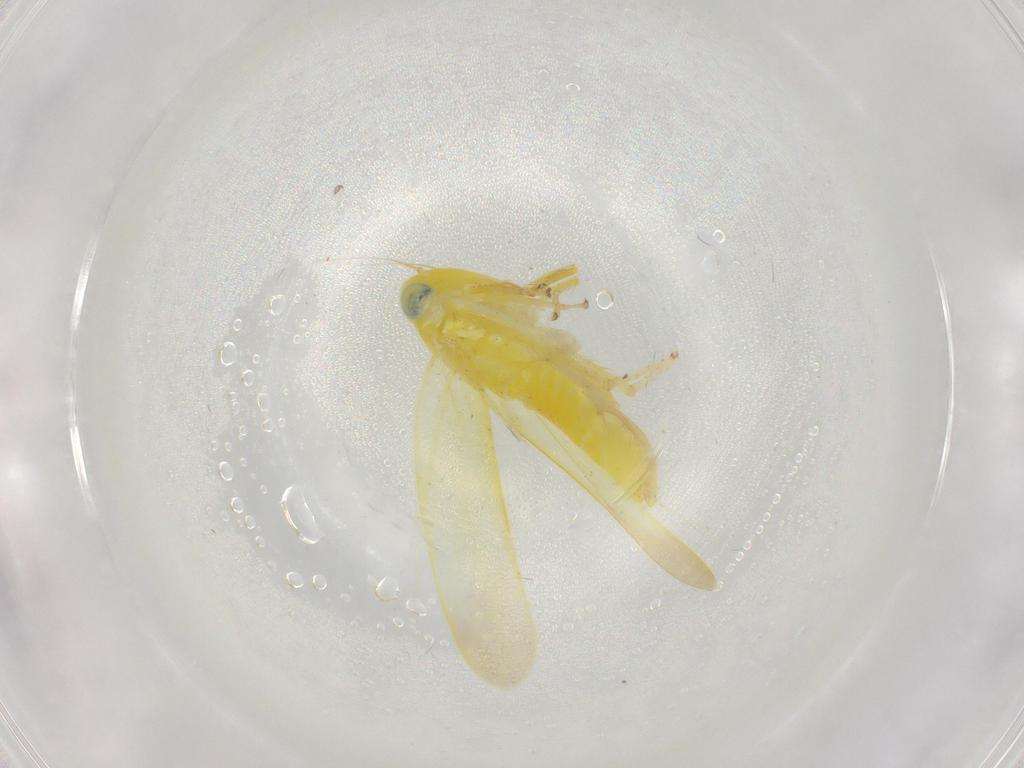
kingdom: Animalia
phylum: Arthropoda
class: Insecta
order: Hemiptera
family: Cicadellidae
